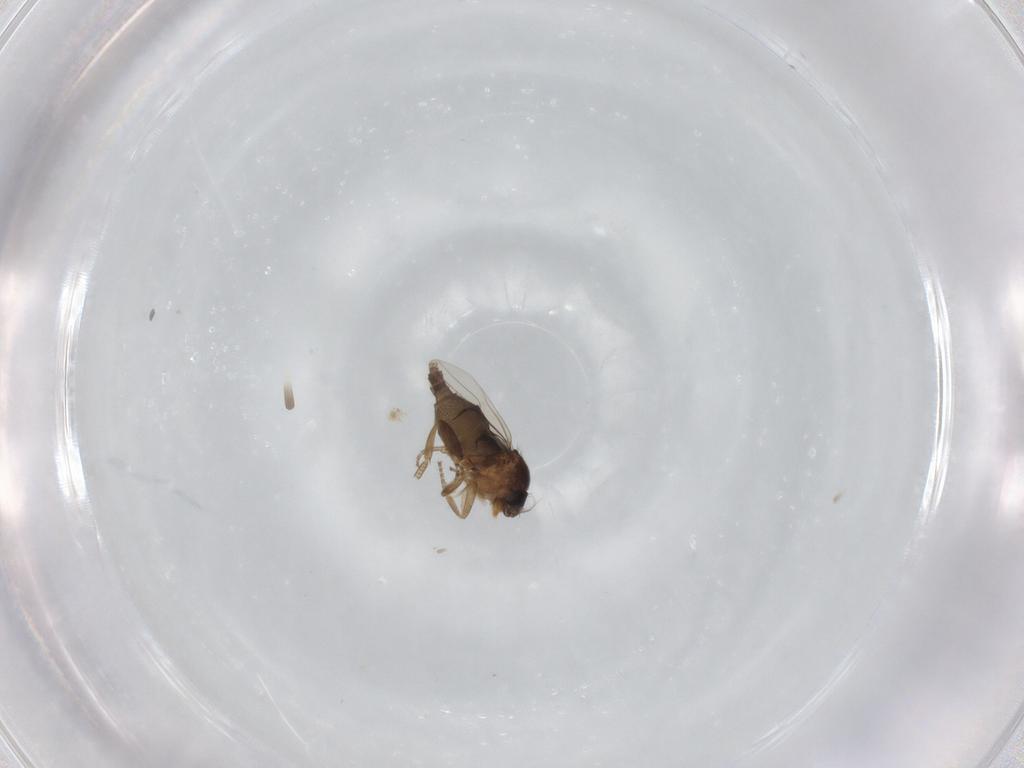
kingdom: Animalia
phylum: Arthropoda
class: Insecta
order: Diptera
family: Phoridae
